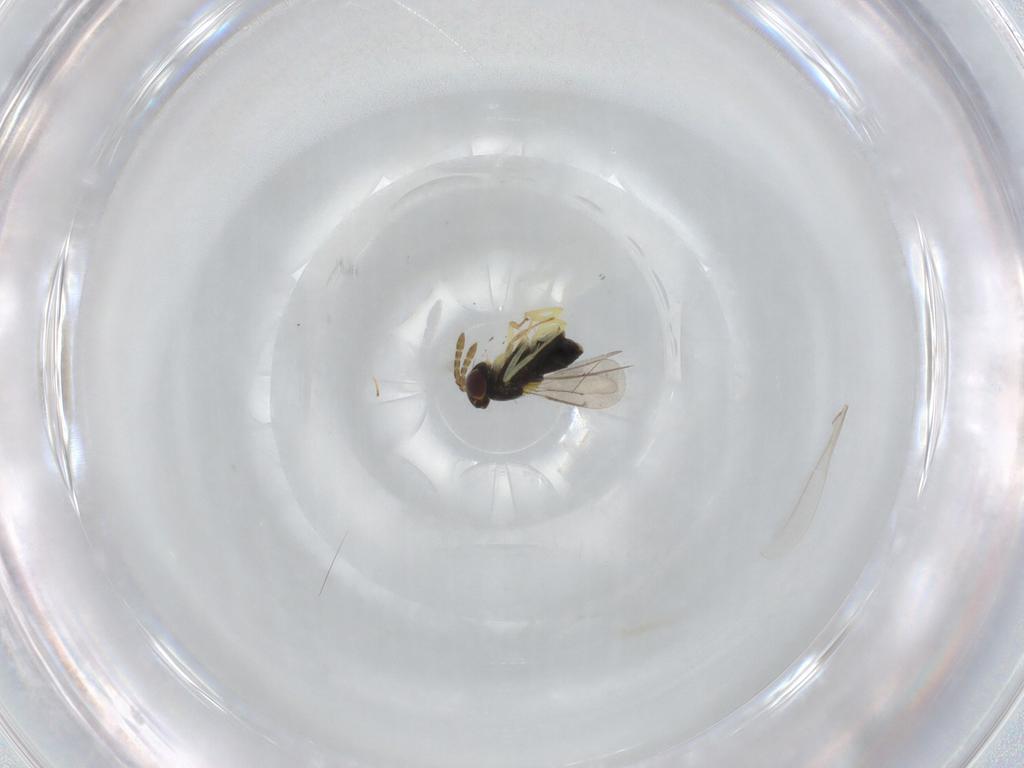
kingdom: Animalia
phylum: Arthropoda
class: Insecta
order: Hymenoptera
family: Aphelinidae
